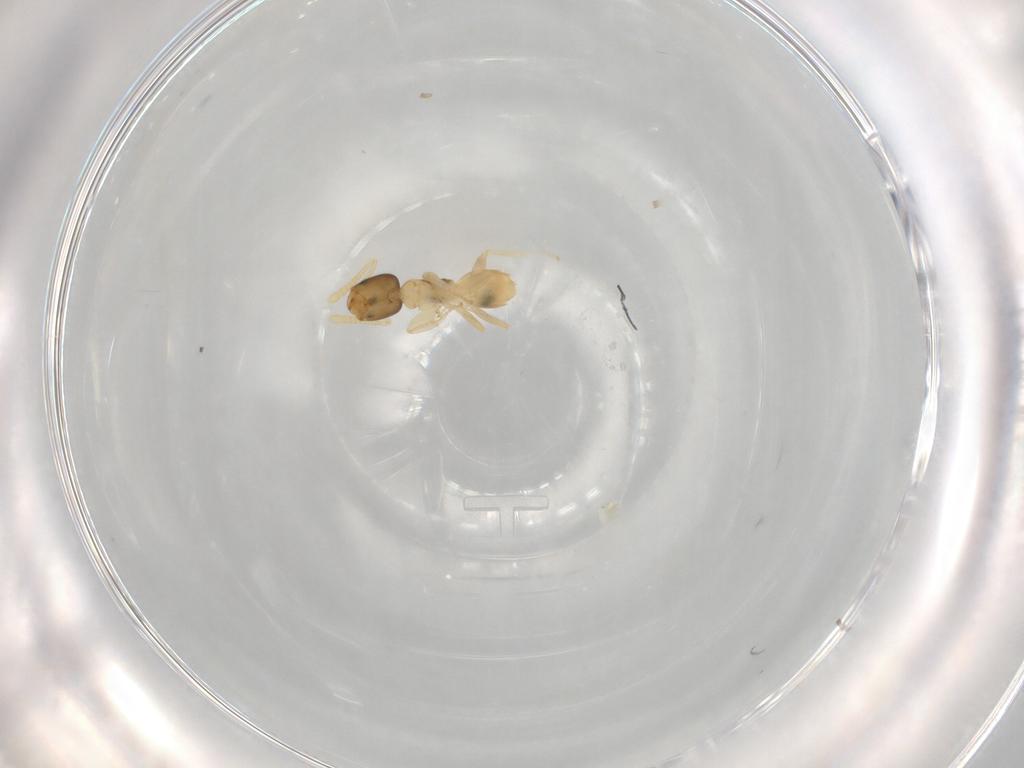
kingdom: Animalia
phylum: Arthropoda
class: Insecta
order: Hymenoptera
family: Formicidae
